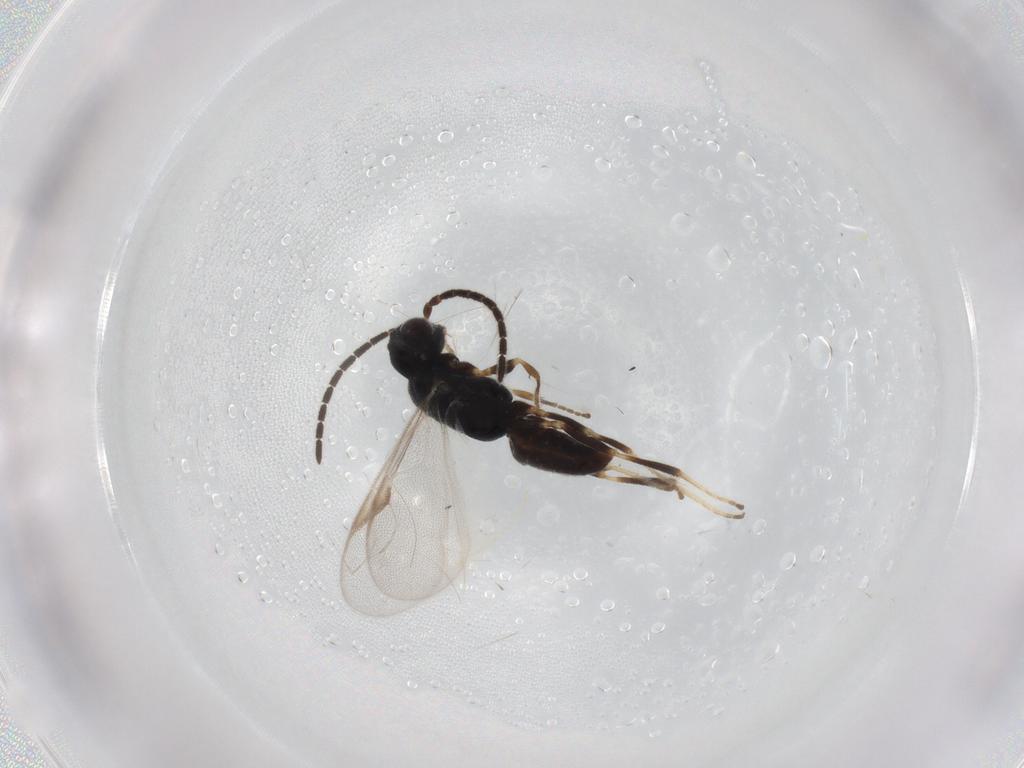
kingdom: Animalia
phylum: Arthropoda
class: Insecta
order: Hymenoptera
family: Dryinidae
